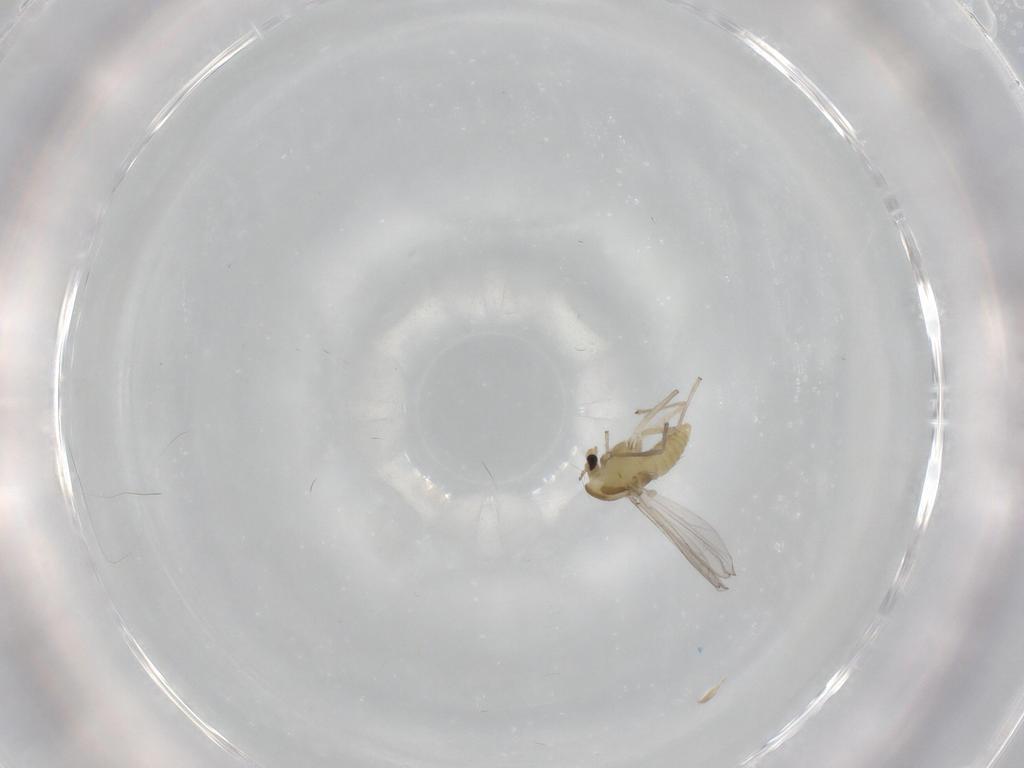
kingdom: Animalia
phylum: Arthropoda
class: Insecta
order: Diptera
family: Chironomidae
